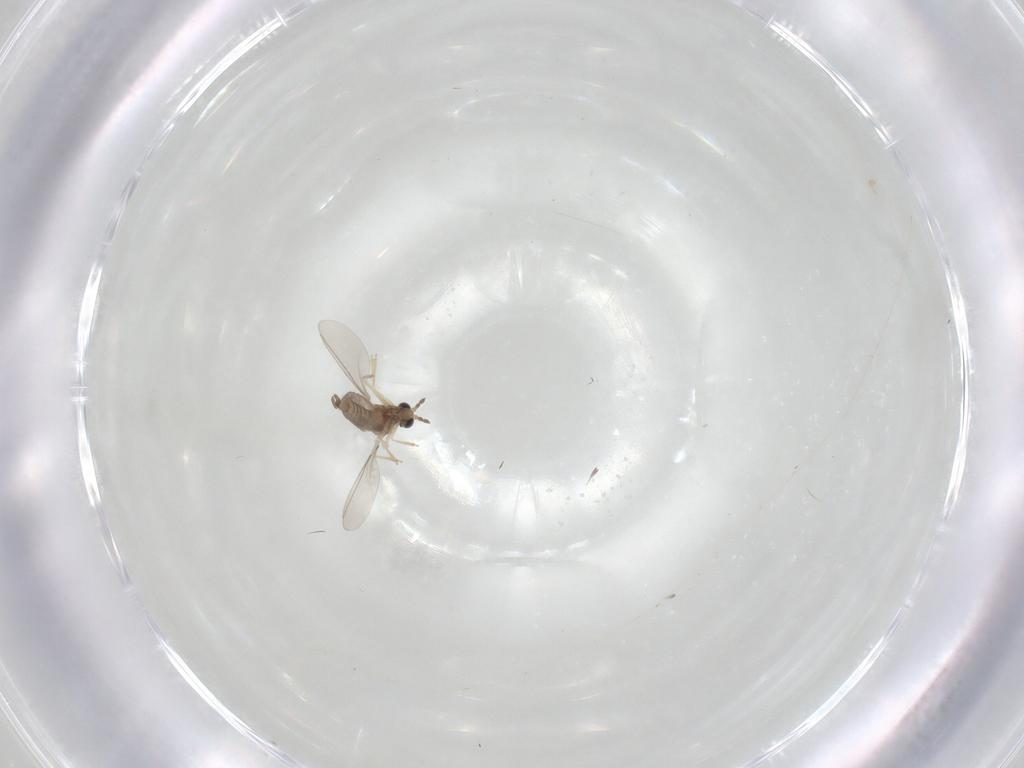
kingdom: Animalia
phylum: Arthropoda
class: Insecta
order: Diptera
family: Cecidomyiidae
